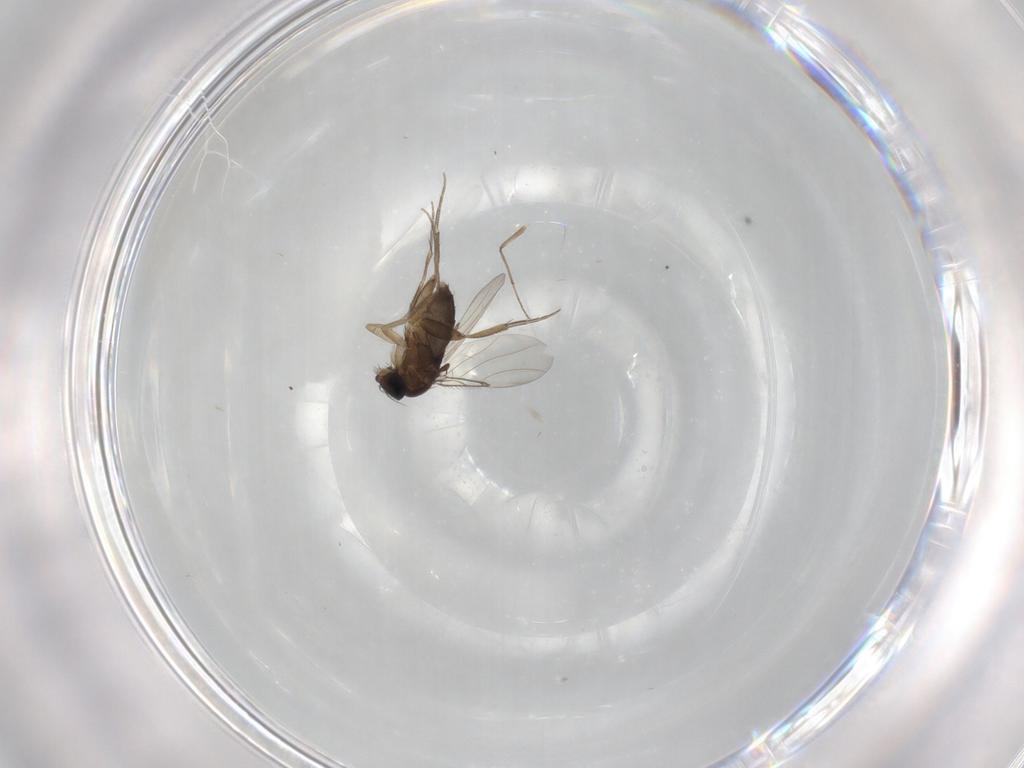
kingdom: Animalia
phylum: Arthropoda
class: Insecta
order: Diptera
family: Phoridae
